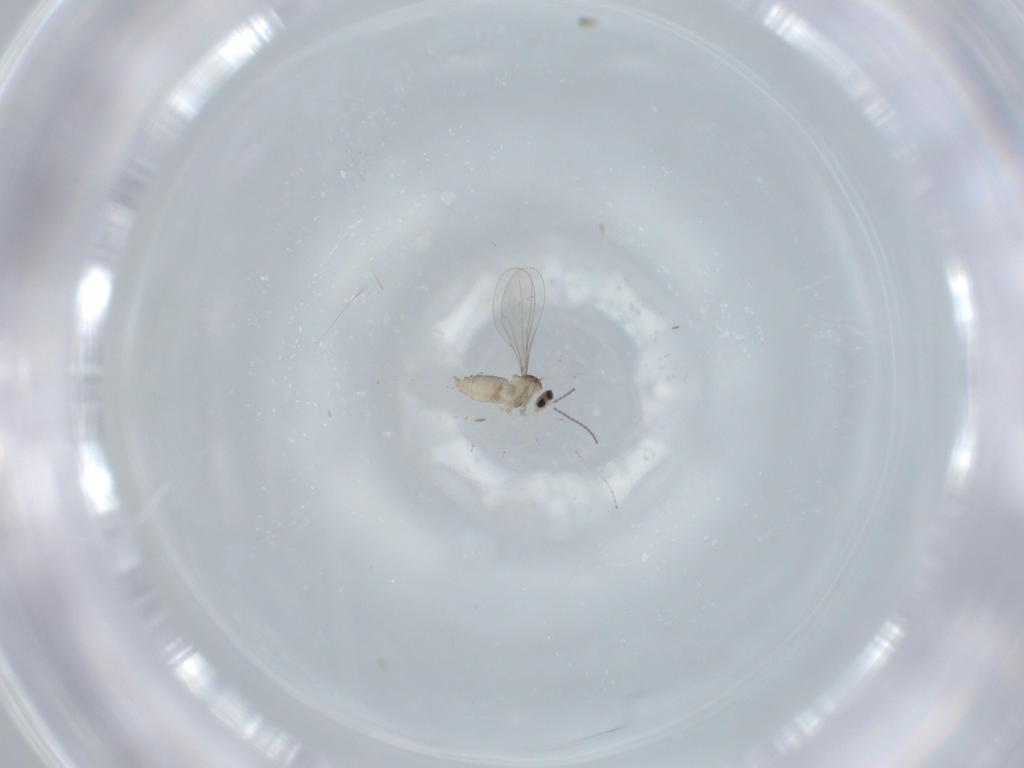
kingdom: Animalia
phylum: Arthropoda
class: Insecta
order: Diptera
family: Cecidomyiidae
